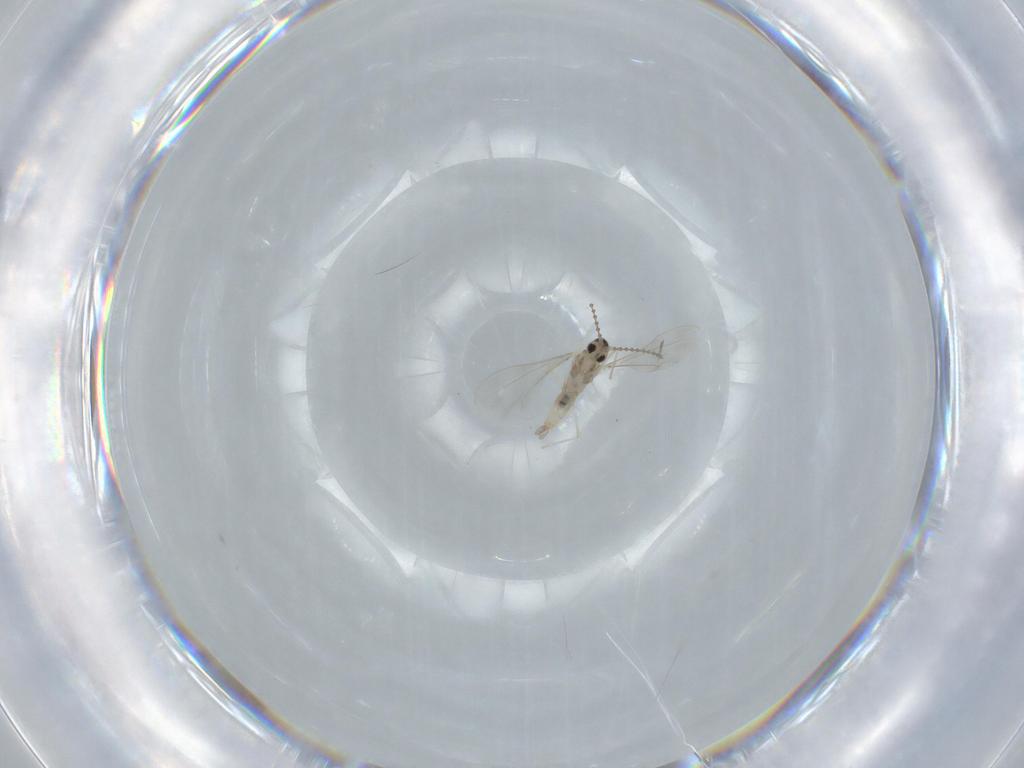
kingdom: Animalia
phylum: Arthropoda
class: Insecta
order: Diptera
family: Cecidomyiidae
